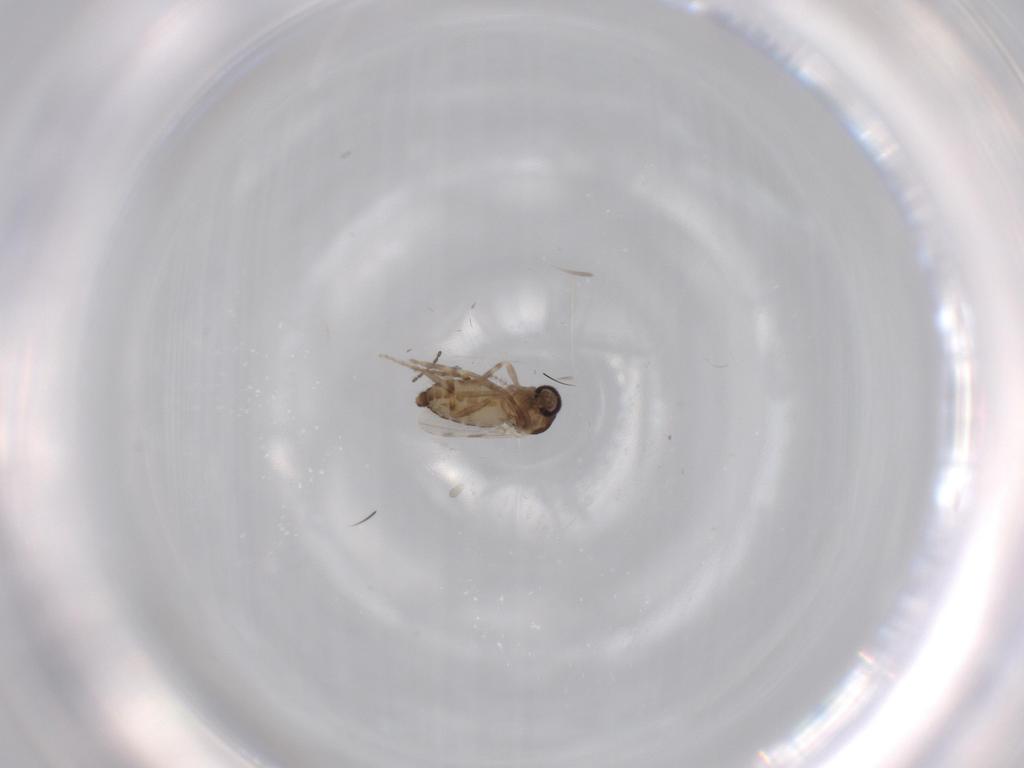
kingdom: Animalia
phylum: Arthropoda
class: Insecta
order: Diptera
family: Ceratopogonidae
